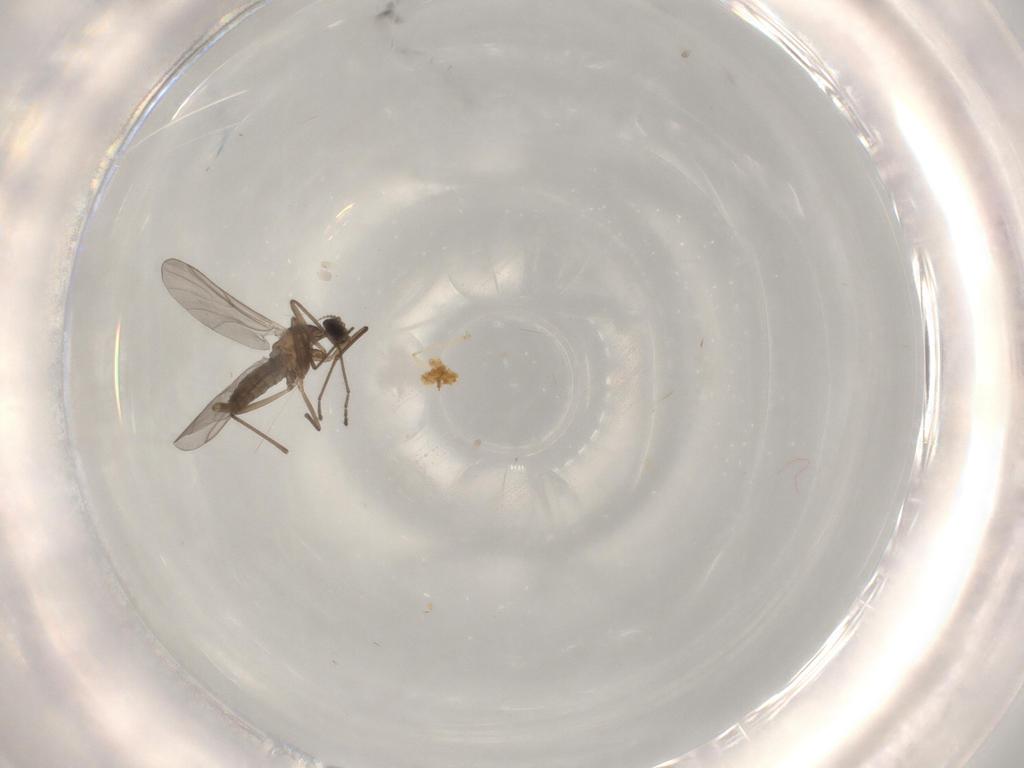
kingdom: Animalia
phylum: Arthropoda
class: Insecta
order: Diptera
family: Cecidomyiidae
